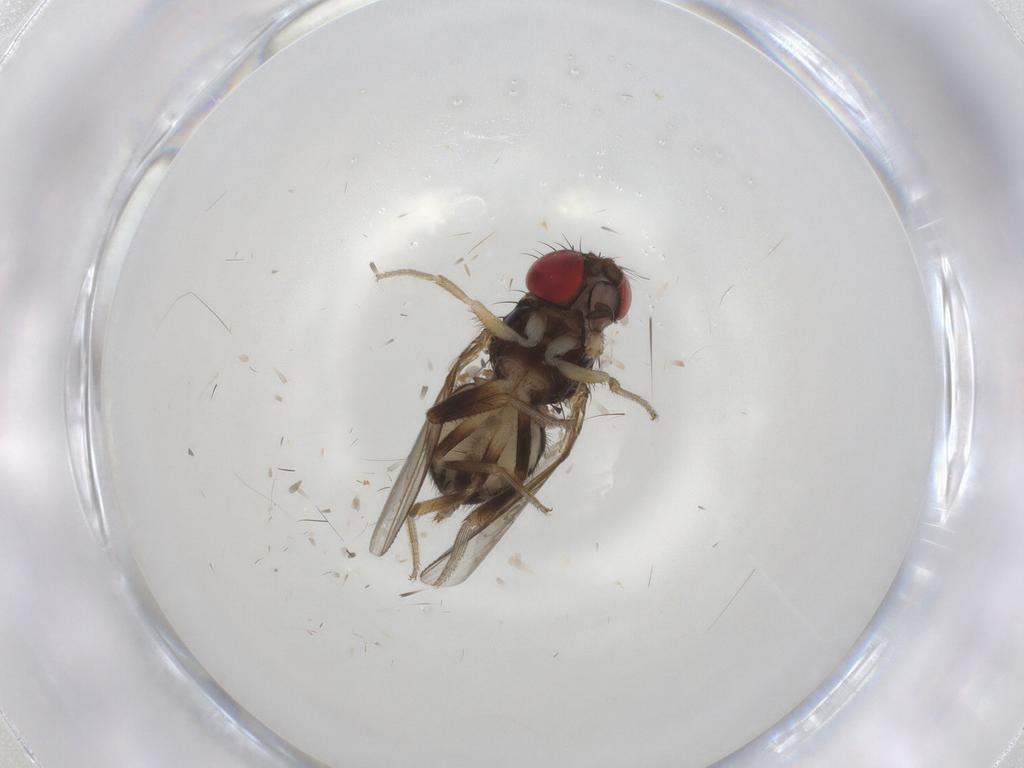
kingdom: Animalia
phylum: Arthropoda
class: Insecta
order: Diptera
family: Drosophilidae
